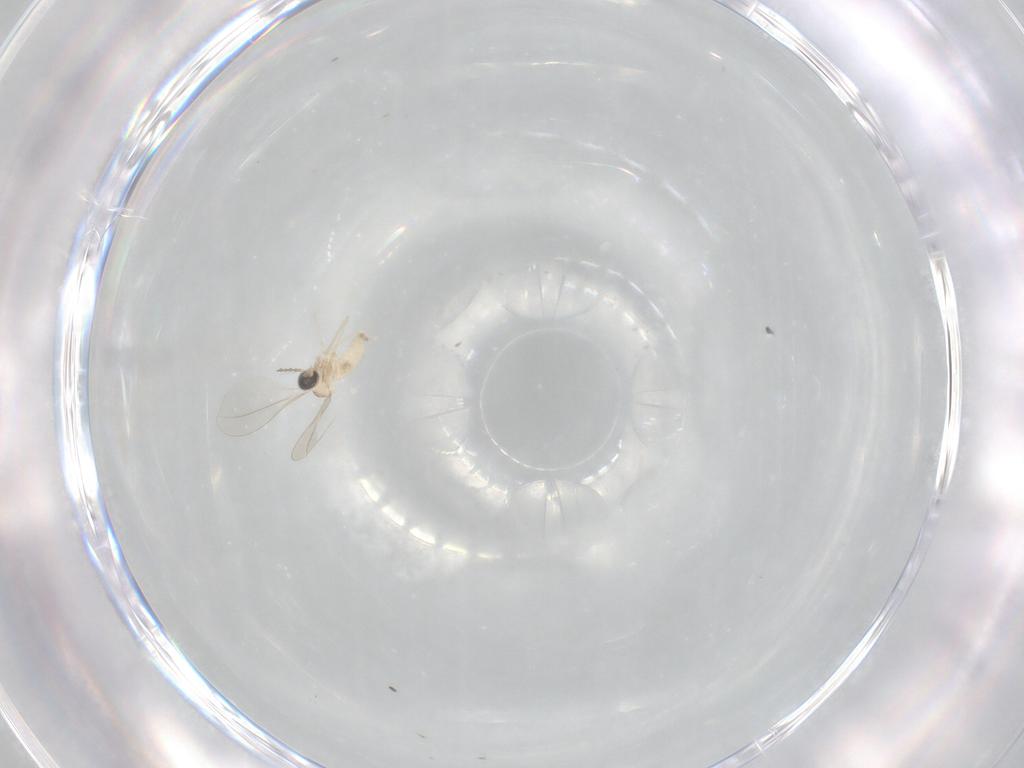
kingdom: Animalia
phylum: Arthropoda
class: Insecta
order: Diptera
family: Cecidomyiidae
